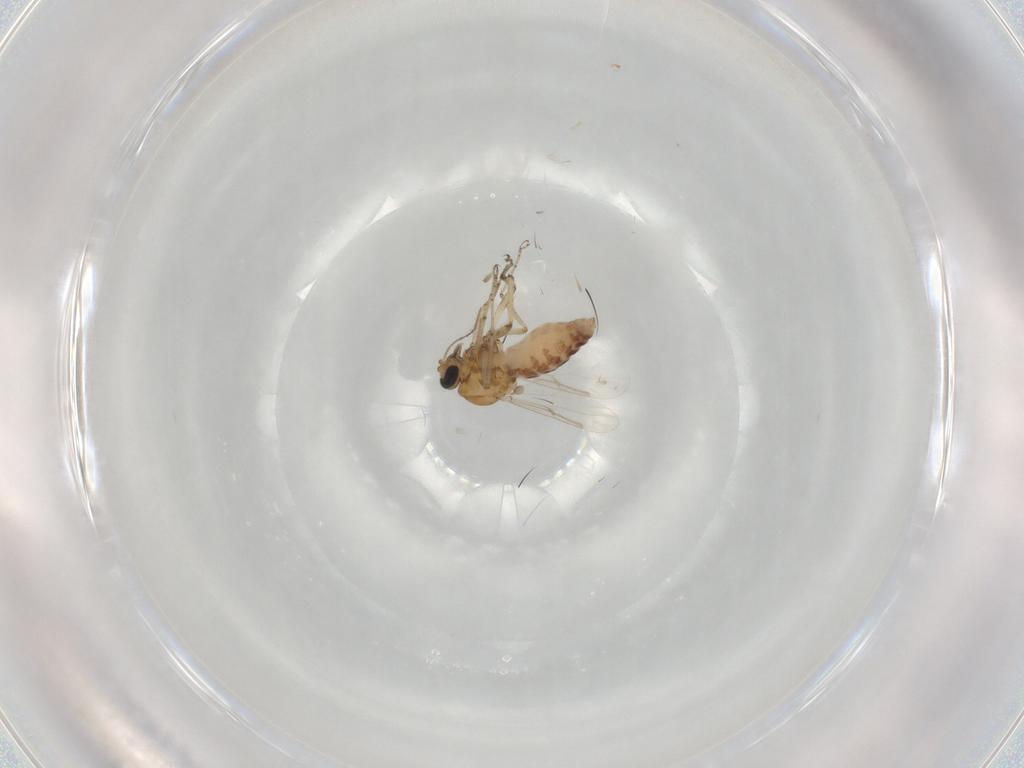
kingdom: Animalia
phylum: Arthropoda
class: Insecta
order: Diptera
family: Ceratopogonidae
